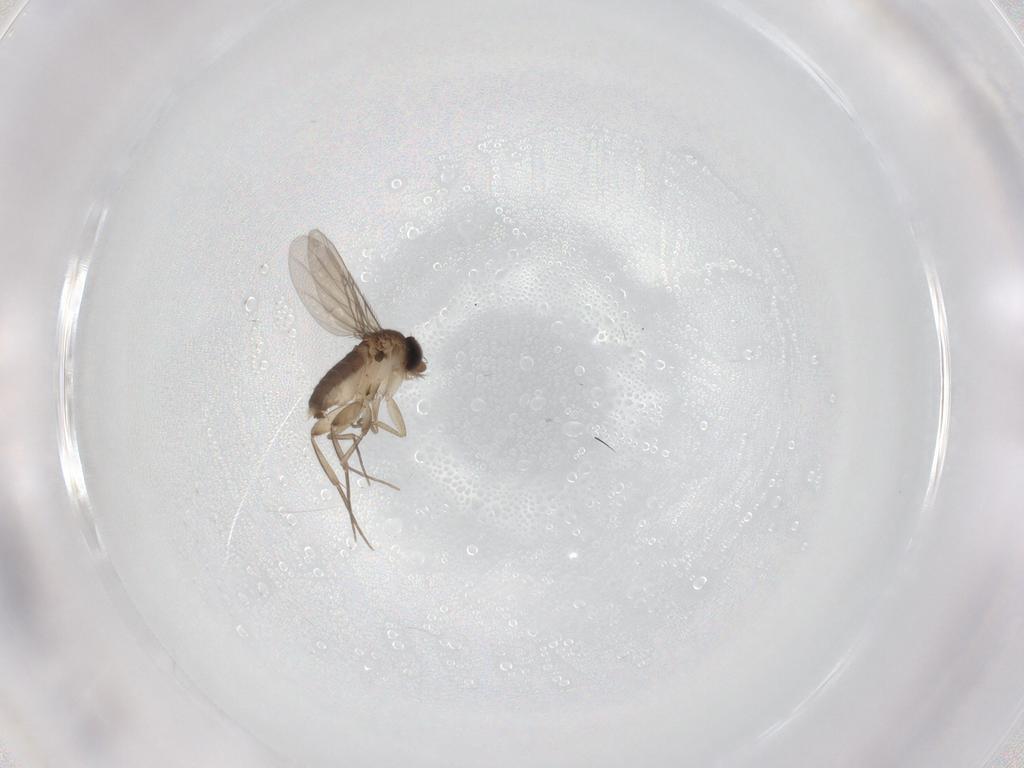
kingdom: Animalia
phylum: Arthropoda
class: Insecta
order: Diptera
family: Phoridae
